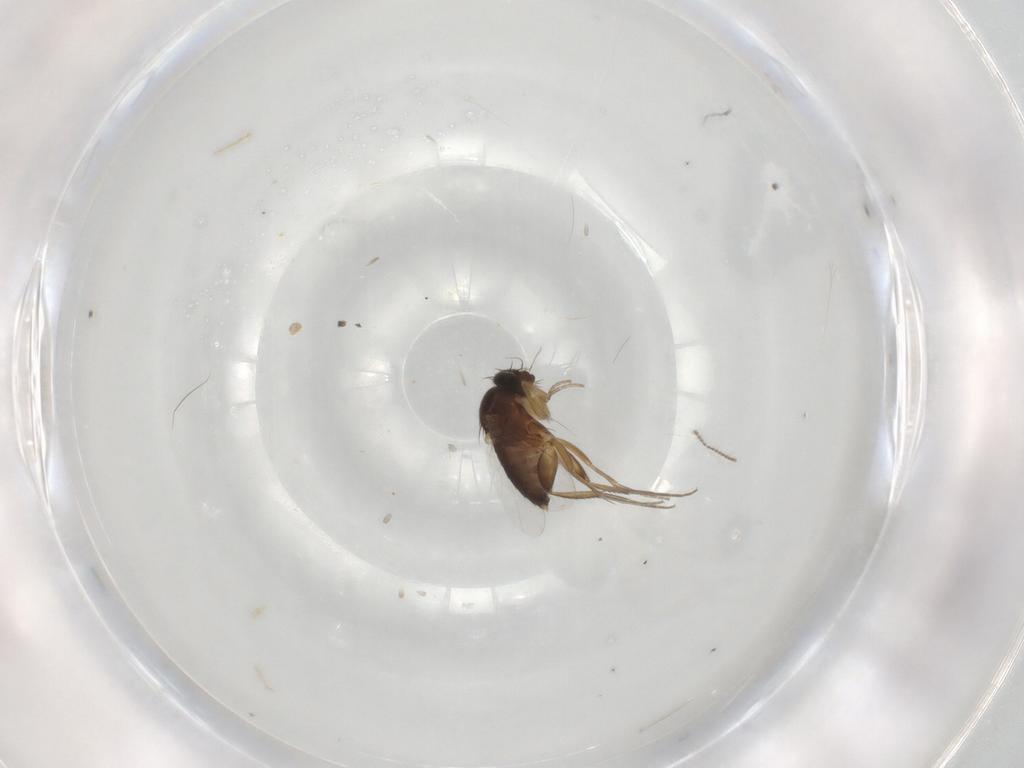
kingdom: Animalia
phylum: Arthropoda
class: Insecta
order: Diptera
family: Phoridae
